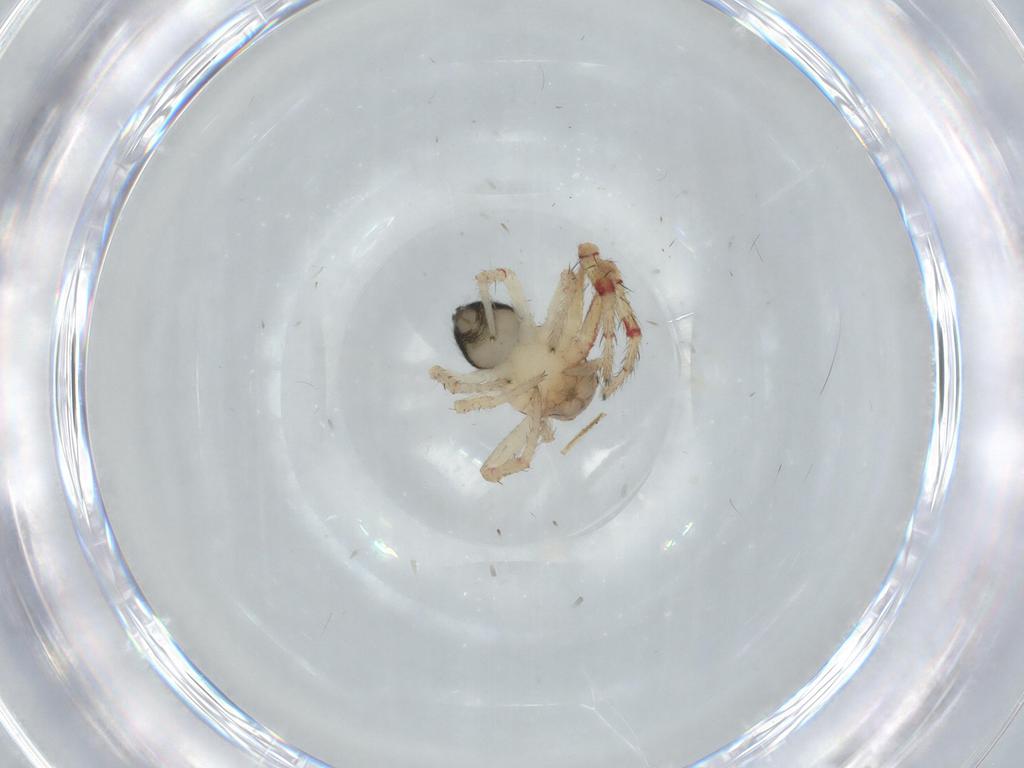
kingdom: Animalia
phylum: Arthropoda
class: Arachnida
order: Araneae
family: Thomisidae
